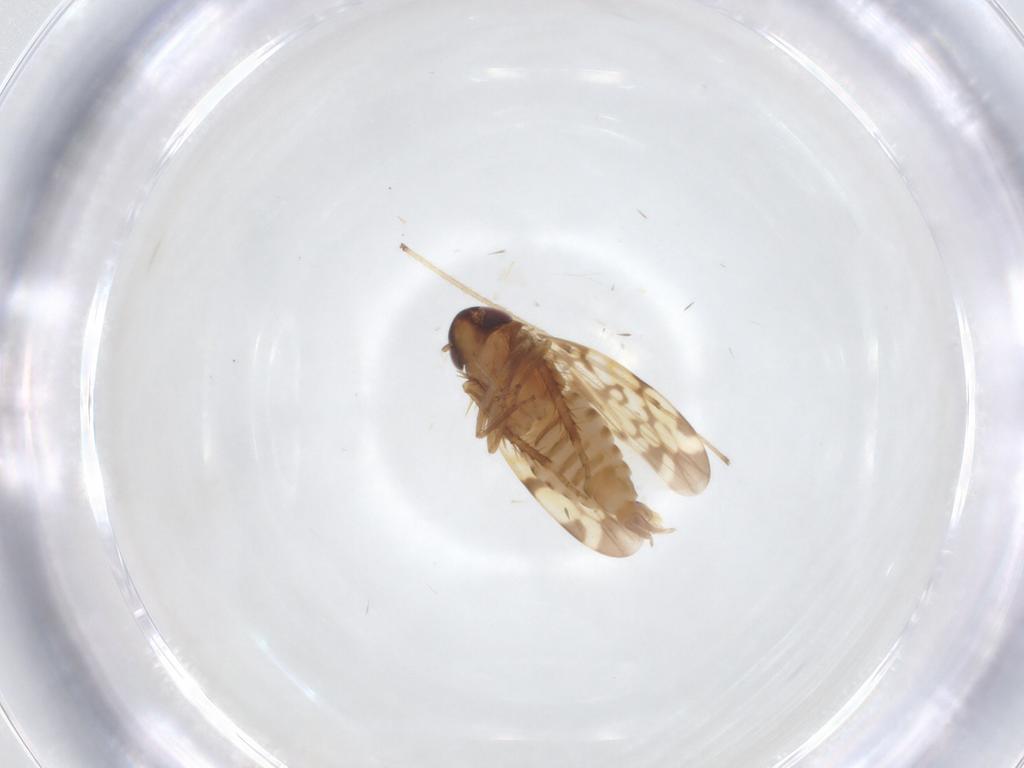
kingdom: Animalia
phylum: Arthropoda
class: Insecta
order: Hemiptera
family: Cicadellidae
